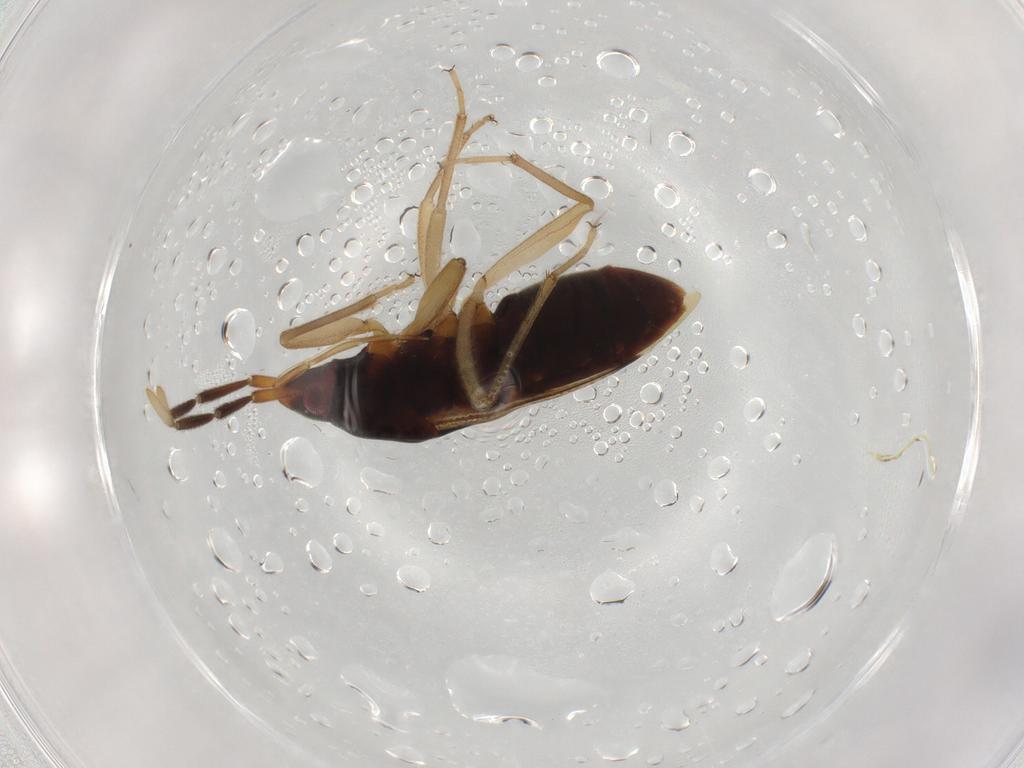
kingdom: Animalia
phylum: Arthropoda
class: Insecta
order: Hemiptera
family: Rhyparochromidae
